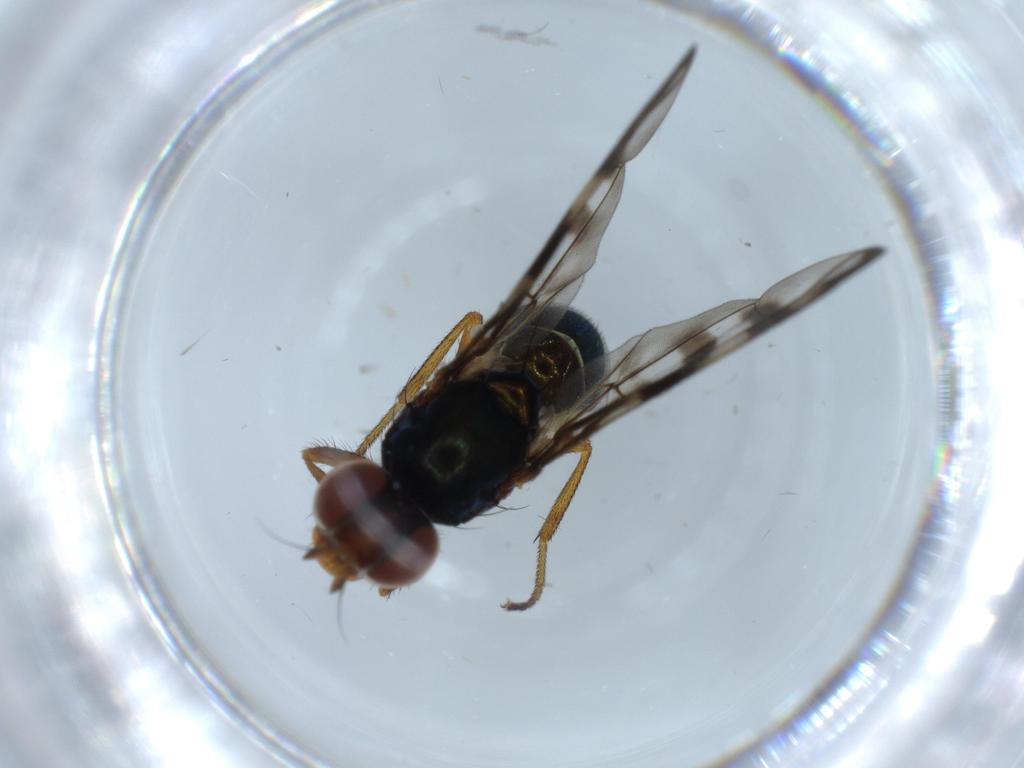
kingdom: Animalia
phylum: Arthropoda
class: Insecta
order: Diptera
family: Platystomatidae
